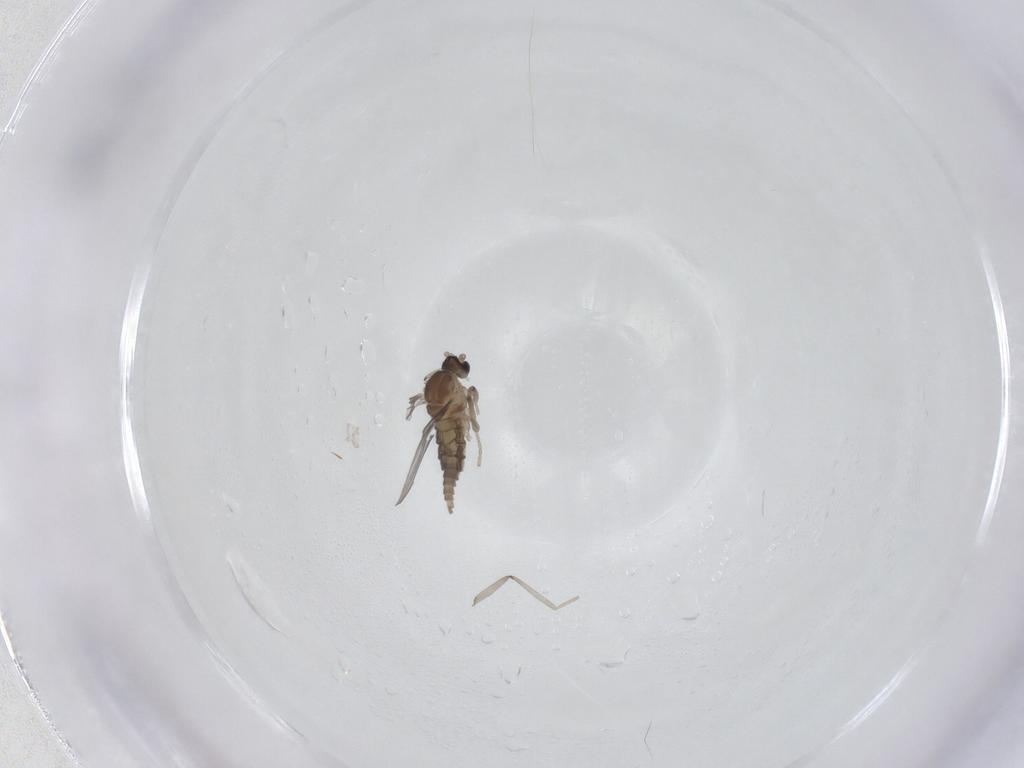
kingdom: Animalia
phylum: Arthropoda
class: Insecta
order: Diptera
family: Cecidomyiidae
